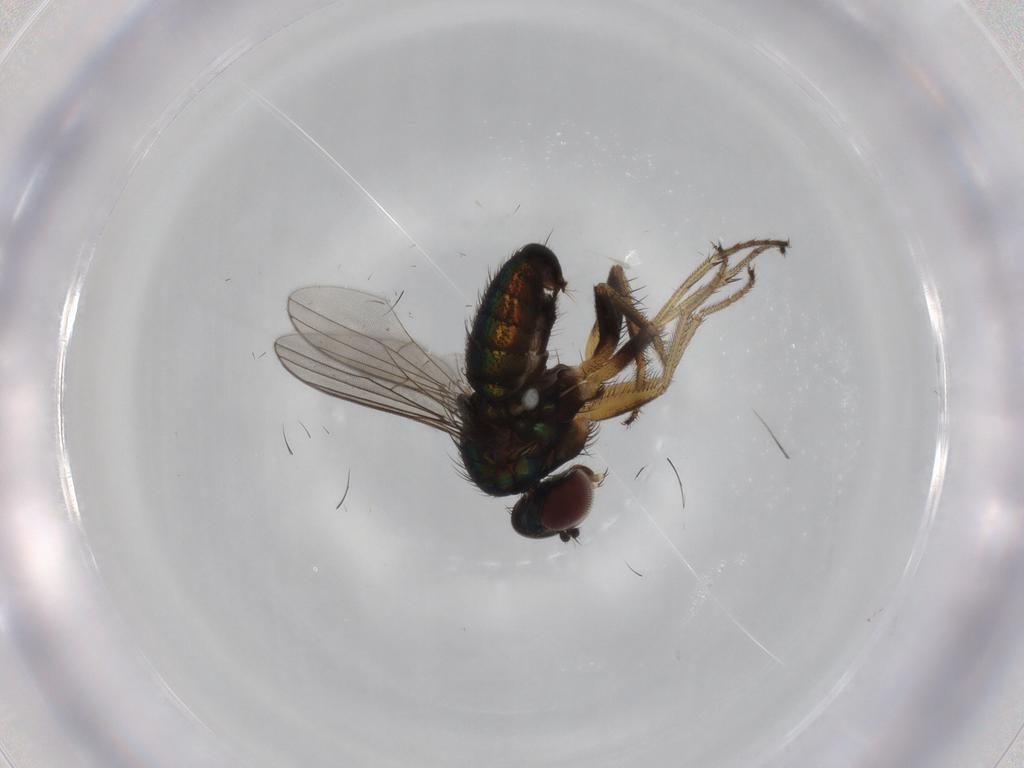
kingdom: Animalia
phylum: Arthropoda
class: Insecta
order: Diptera
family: Dolichopodidae
